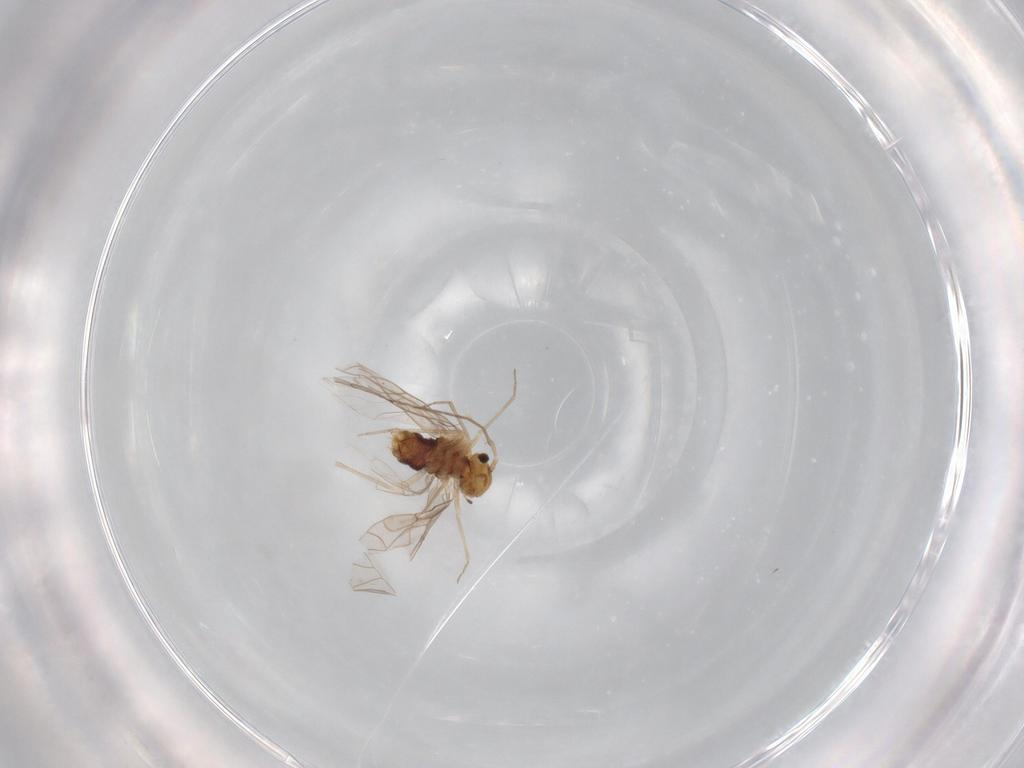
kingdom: Animalia
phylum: Arthropoda
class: Insecta
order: Psocodea
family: Lachesillidae
